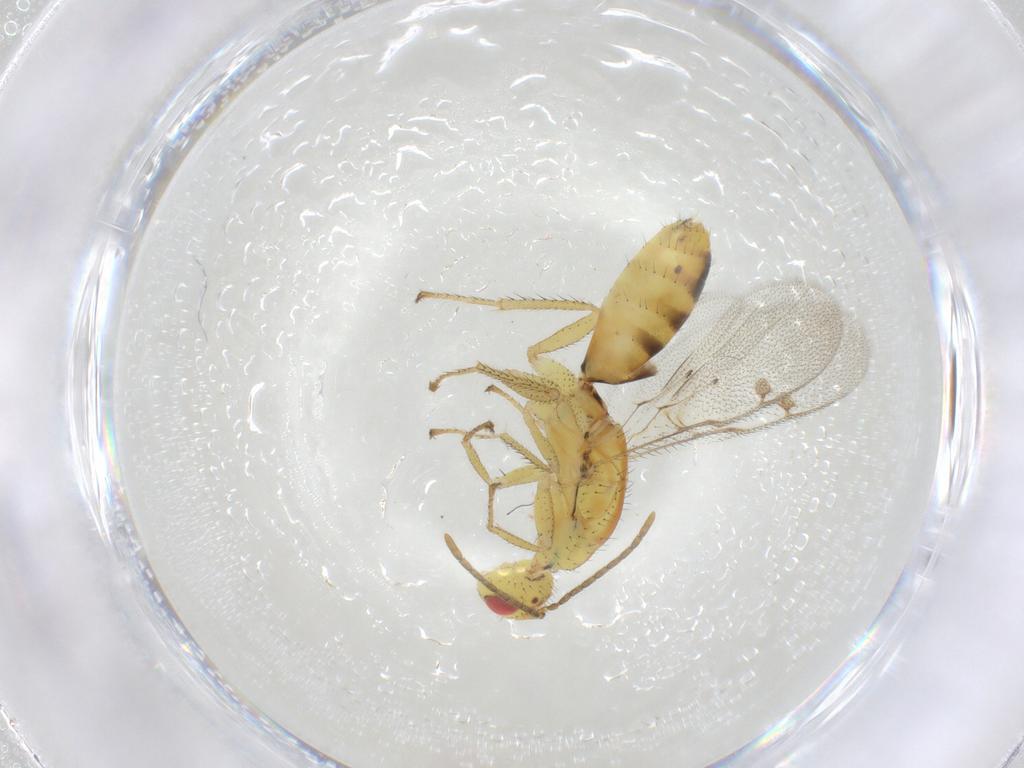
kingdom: Animalia
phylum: Arthropoda
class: Insecta
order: Hymenoptera
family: Megastigmidae
